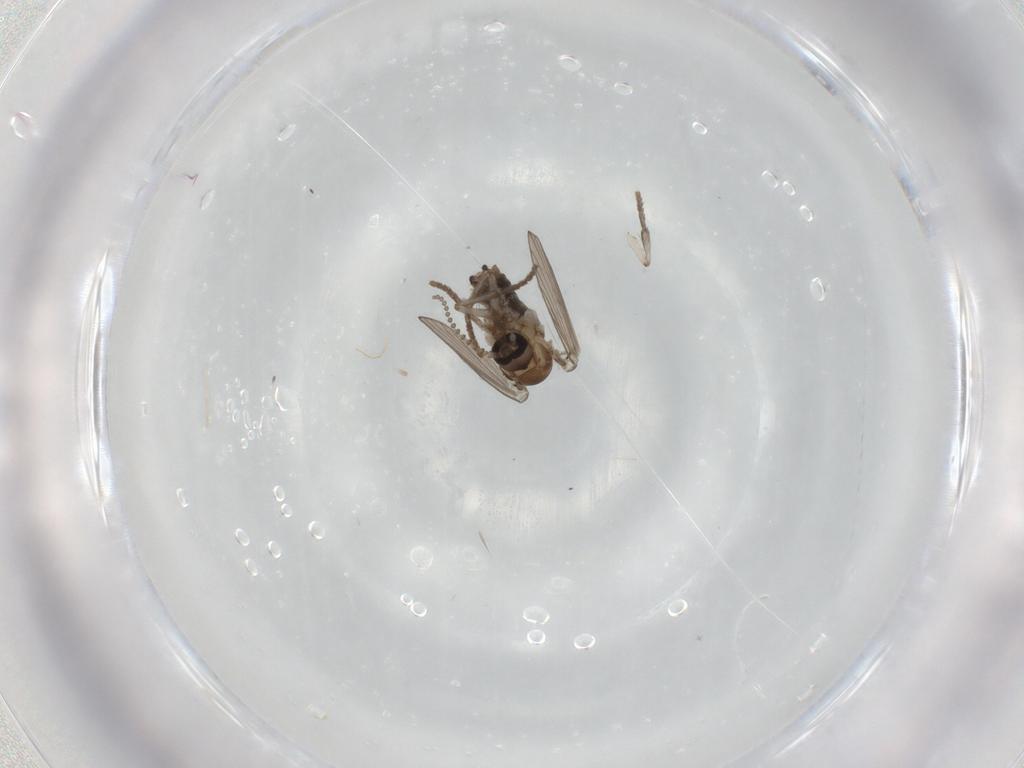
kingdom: Animalia
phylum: Arthropoda
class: Insecta
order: Diptera
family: Psychodidae
